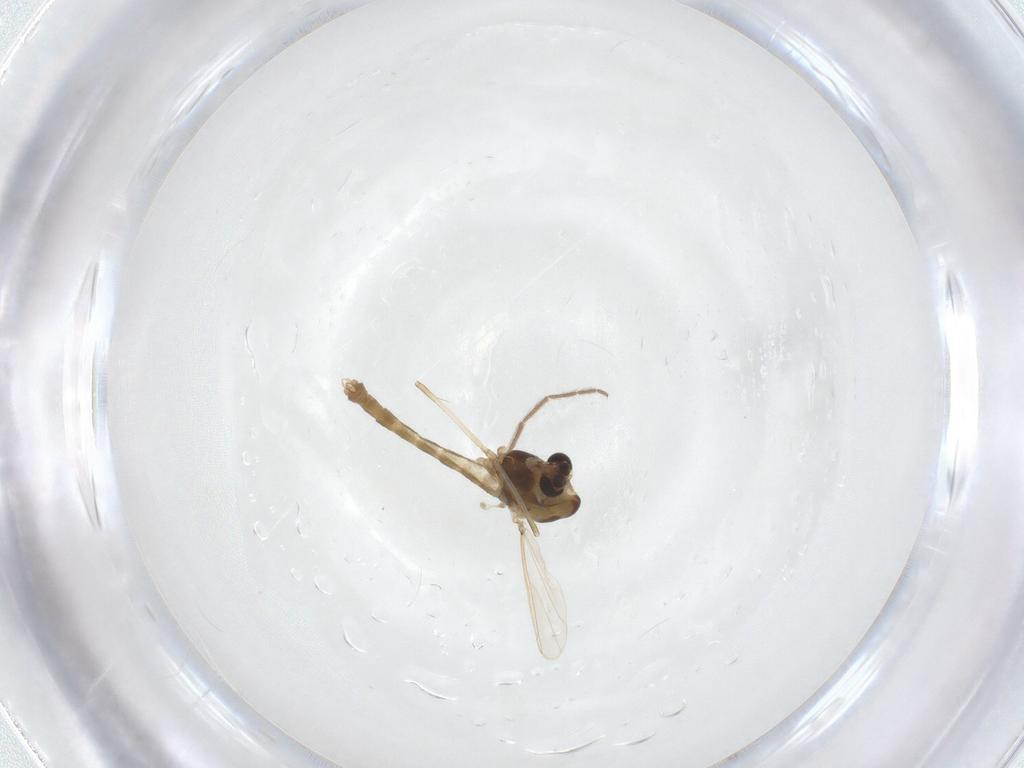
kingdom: Animalia
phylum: Arthropoda
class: Insecta
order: Diptera
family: Chironomidae
